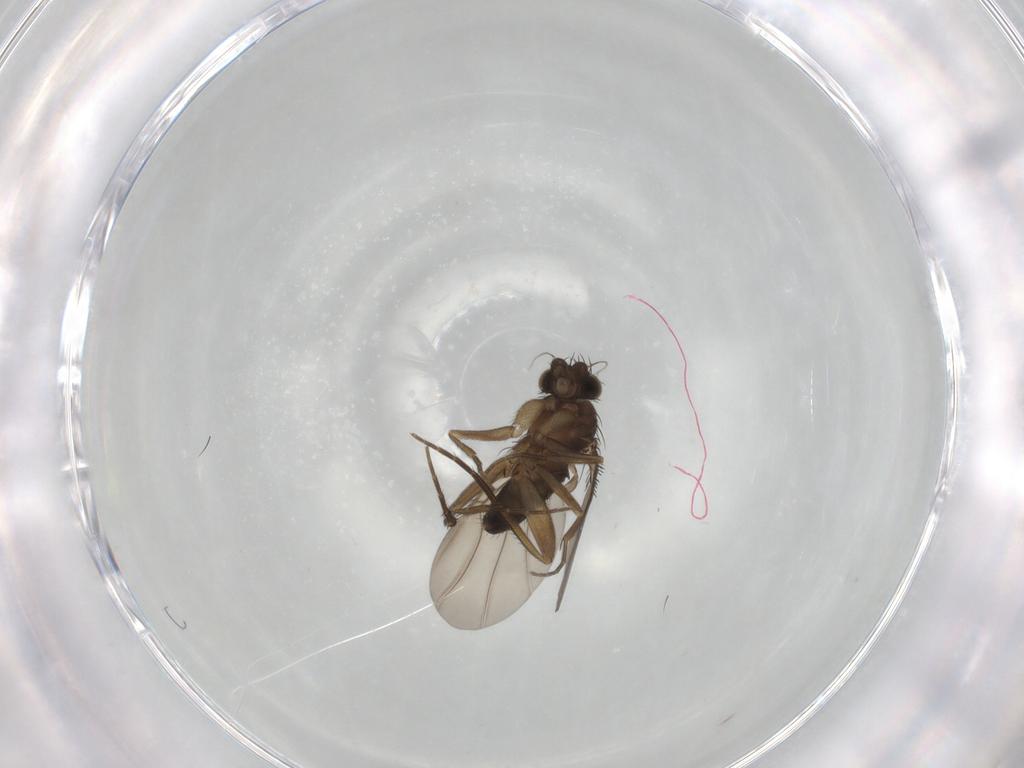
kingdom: Animalia
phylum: Arthropoda
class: Insecta
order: Diptera
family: Phoridae
